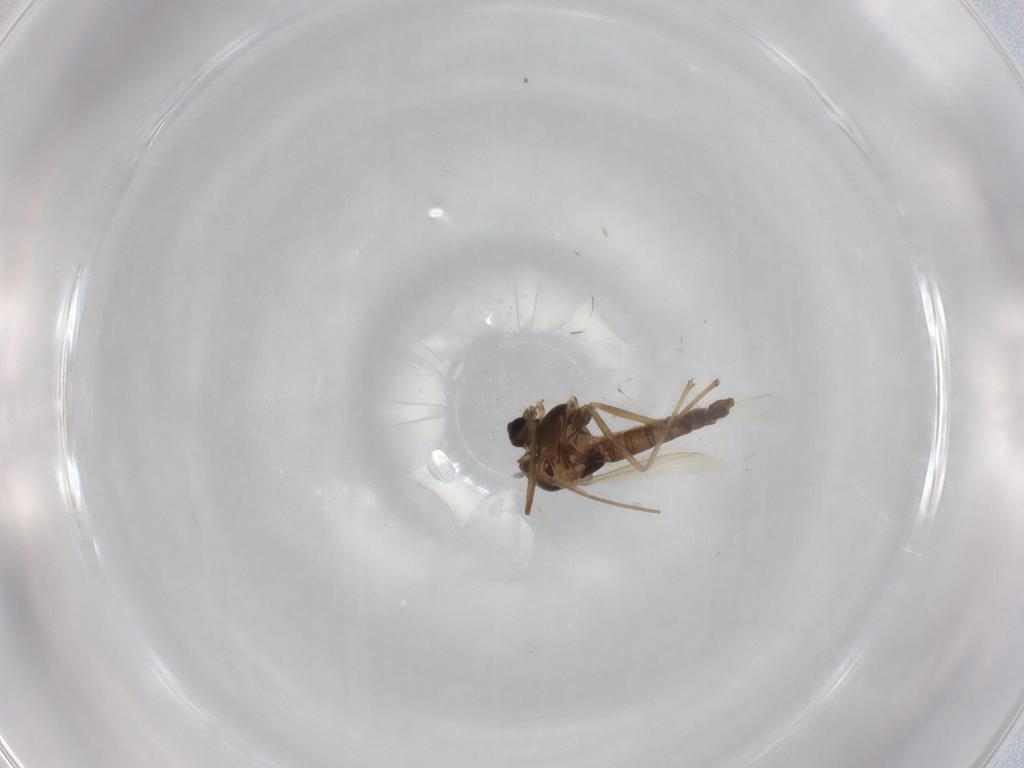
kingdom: Animalia
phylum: Arthropoda
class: Insecta
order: Diptera
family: Chironomidae
